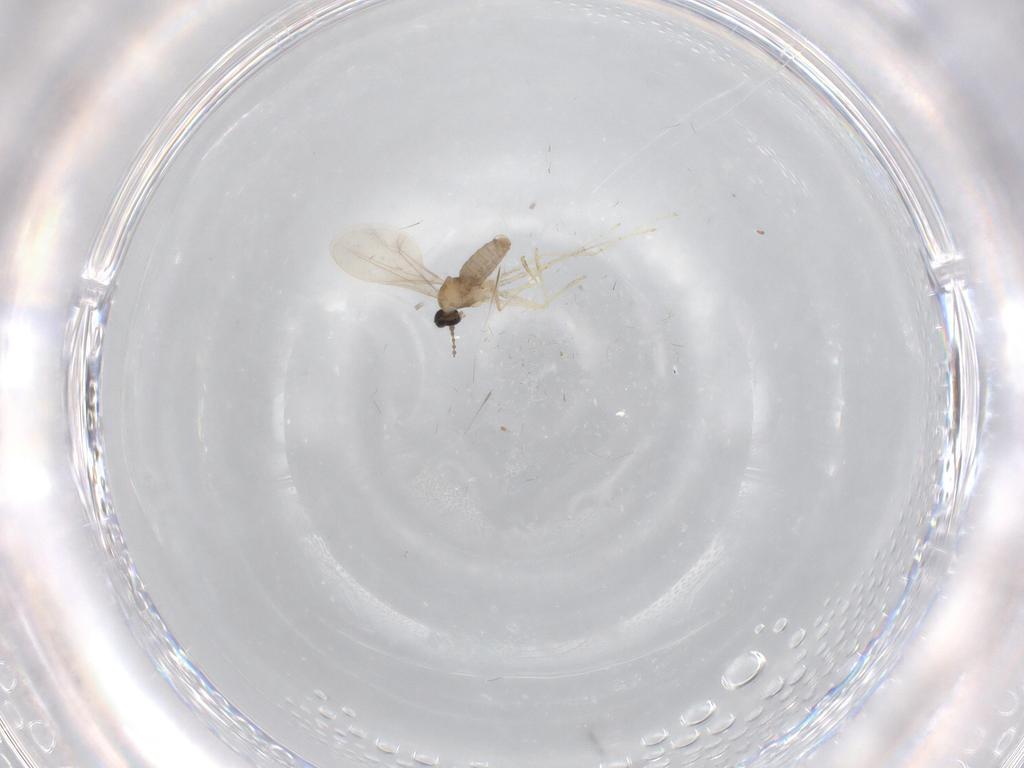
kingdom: Animalia
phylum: Arthropoda
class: Insecta
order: Diptera
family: Cecidomyiidae
